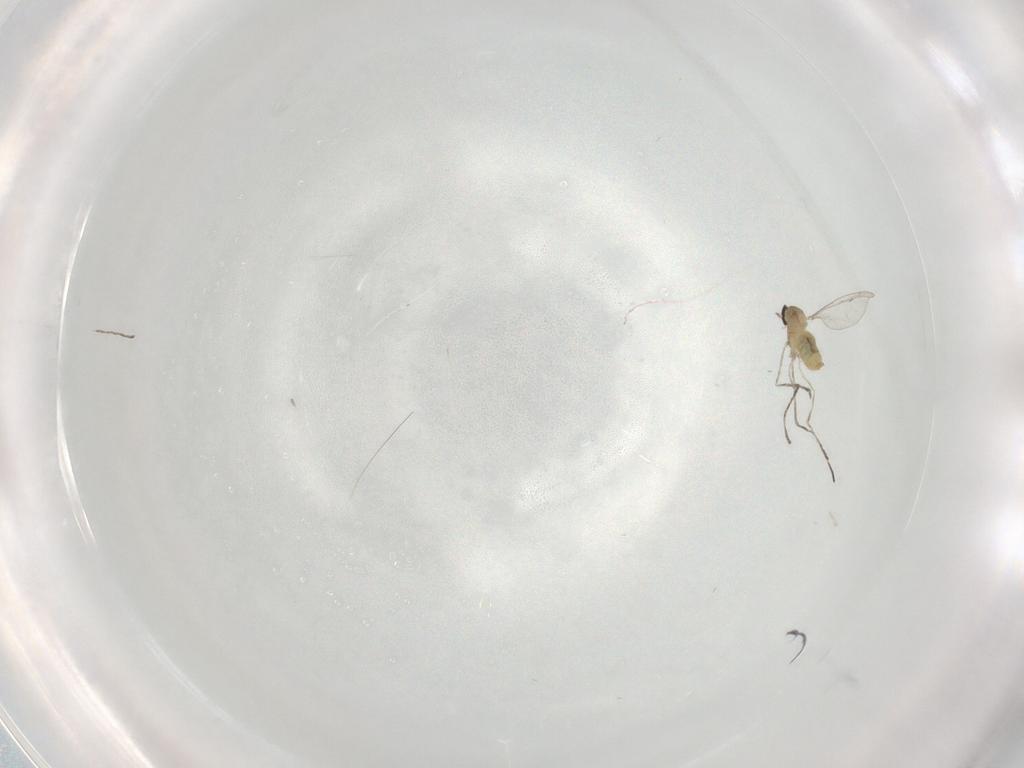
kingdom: Animalia
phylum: Arthropoda
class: Insecta
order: Diptera
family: Cecidomyiidae
